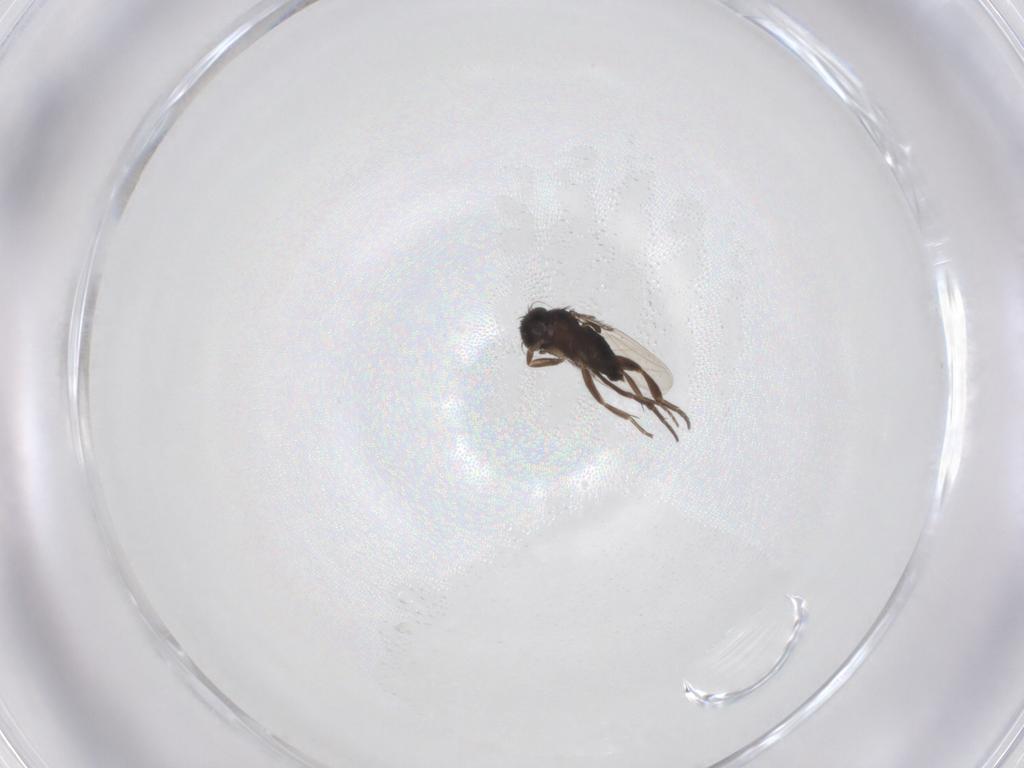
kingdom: Animalia
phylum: Arthropoda
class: Insecta
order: Diptera
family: Phoridae
